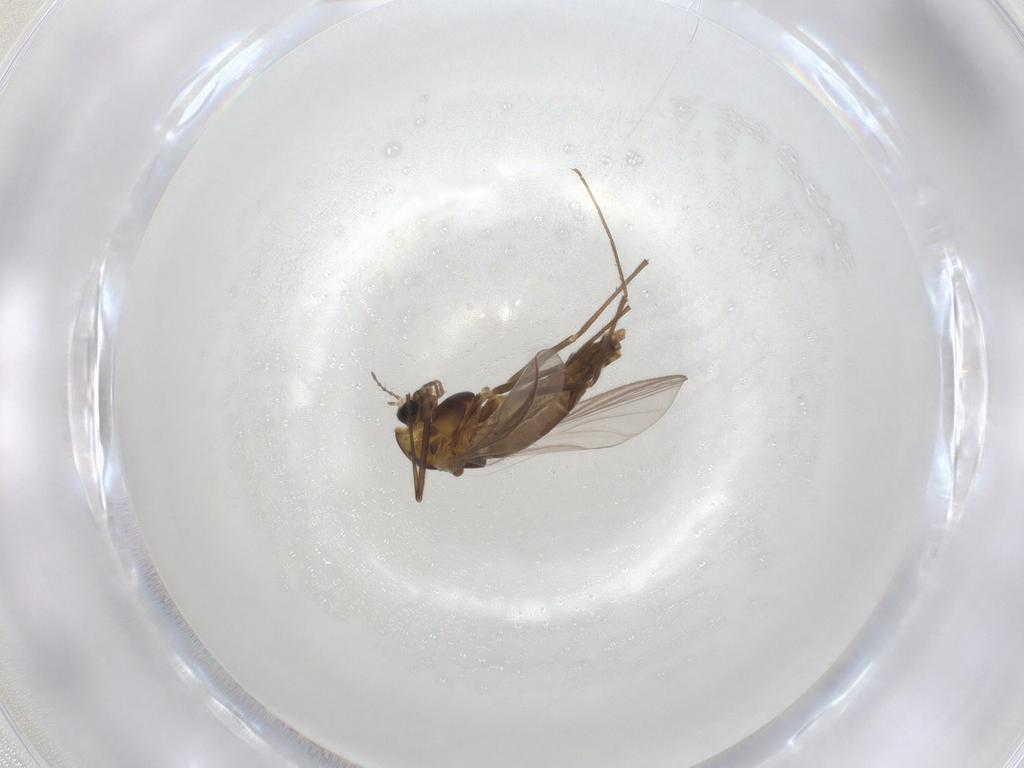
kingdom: Animalia
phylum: Arthropoda
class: Insecta
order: Diptera
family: Chironomidae
